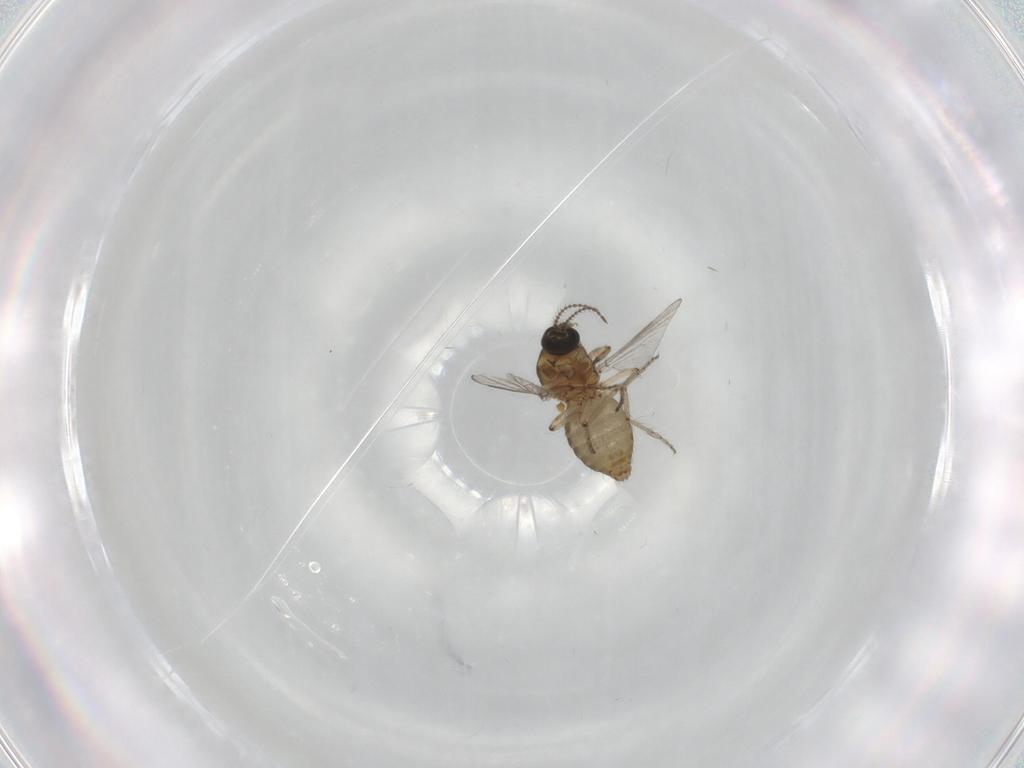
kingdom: Animalia
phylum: Arthropoda
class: Insecta
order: Diptera
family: Ceratopogonidae
